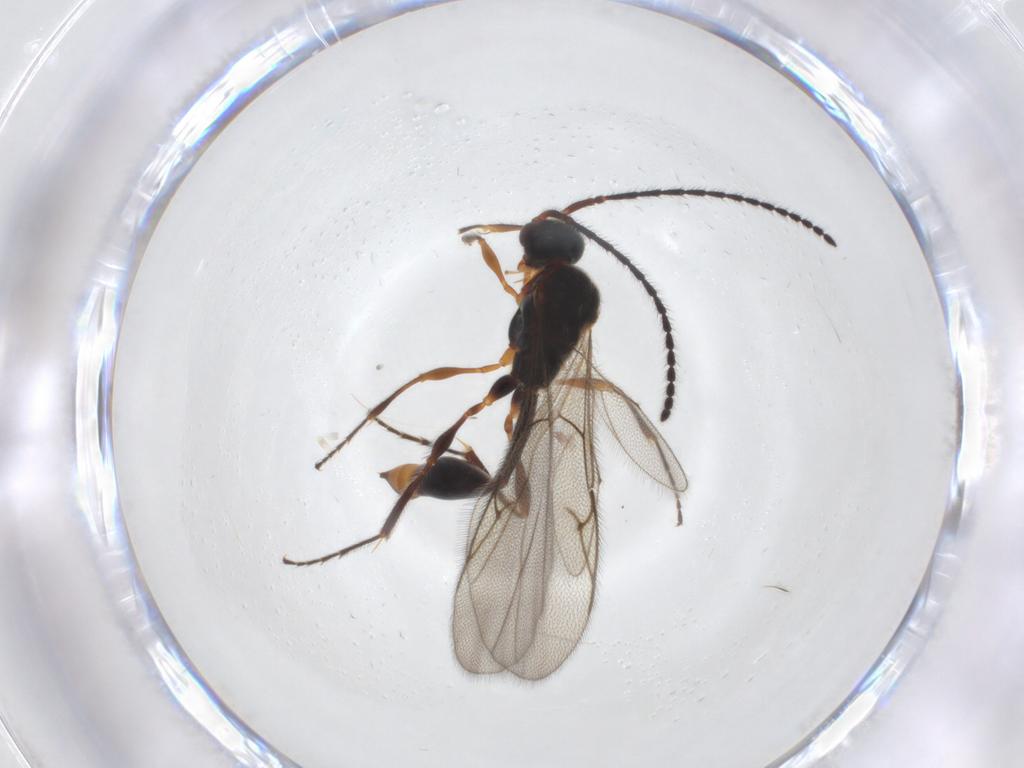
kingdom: Animalia
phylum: Arthropoda
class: Insecta
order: Hymenoptera
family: Diapriidae
